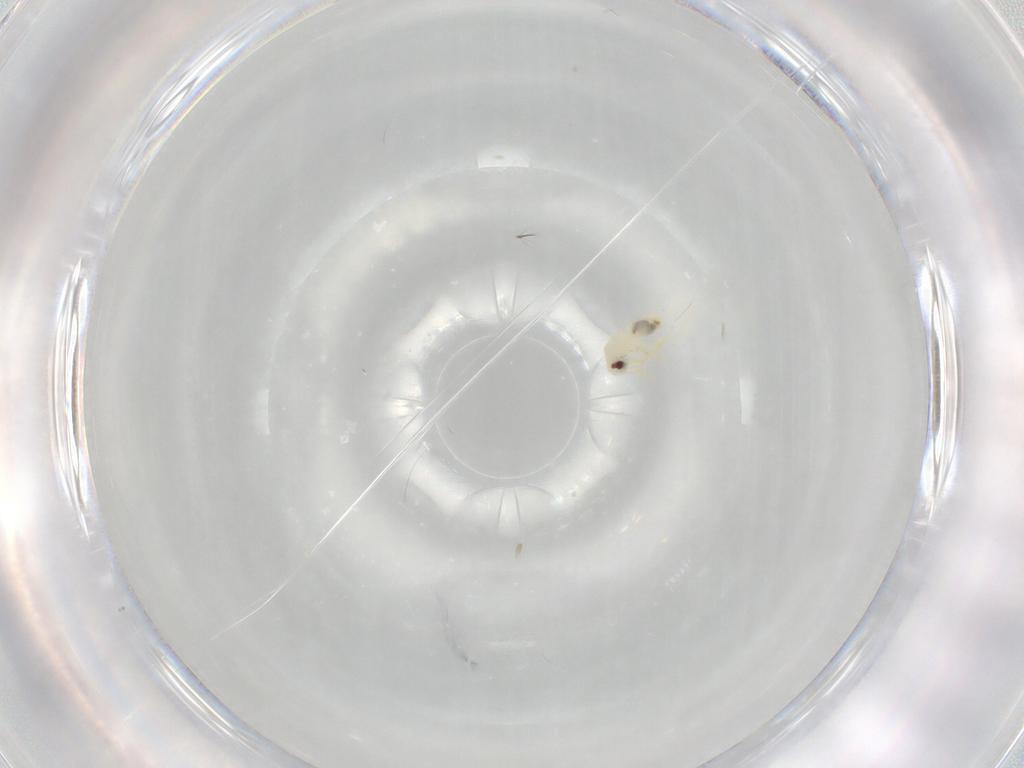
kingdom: Animalia
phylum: Arthropoda
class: Insecta
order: Hemiptera
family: Aleyrodidae
